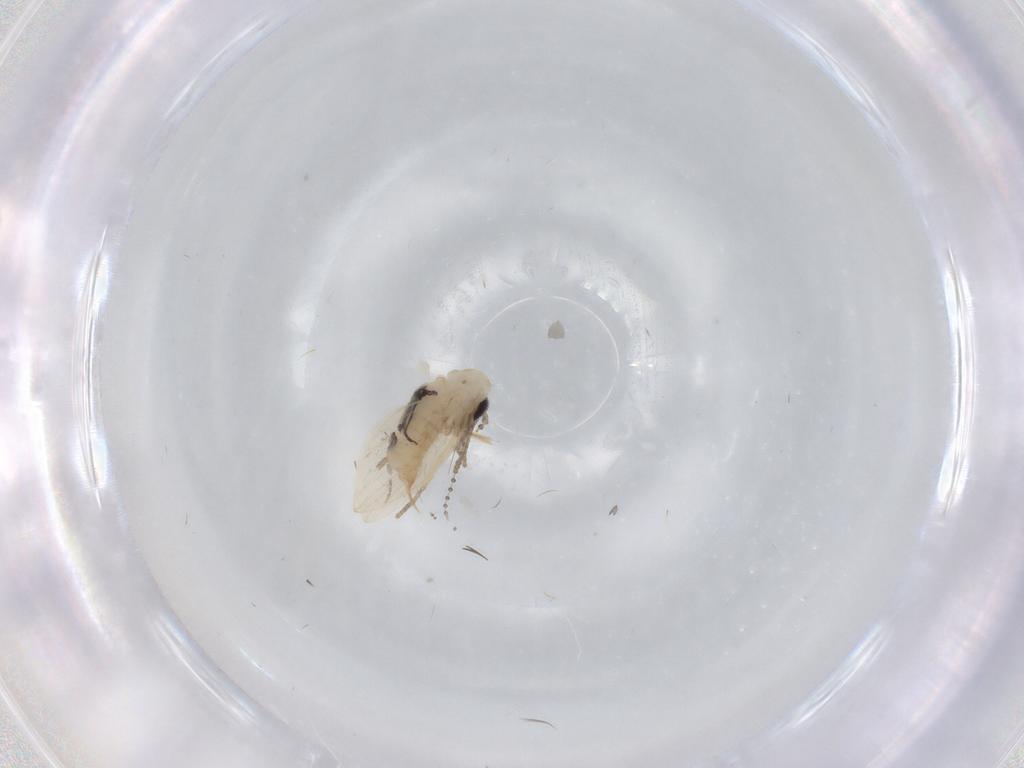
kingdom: Animalia
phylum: Arthropoda
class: Insecta
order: Diptera
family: Psychodidae
